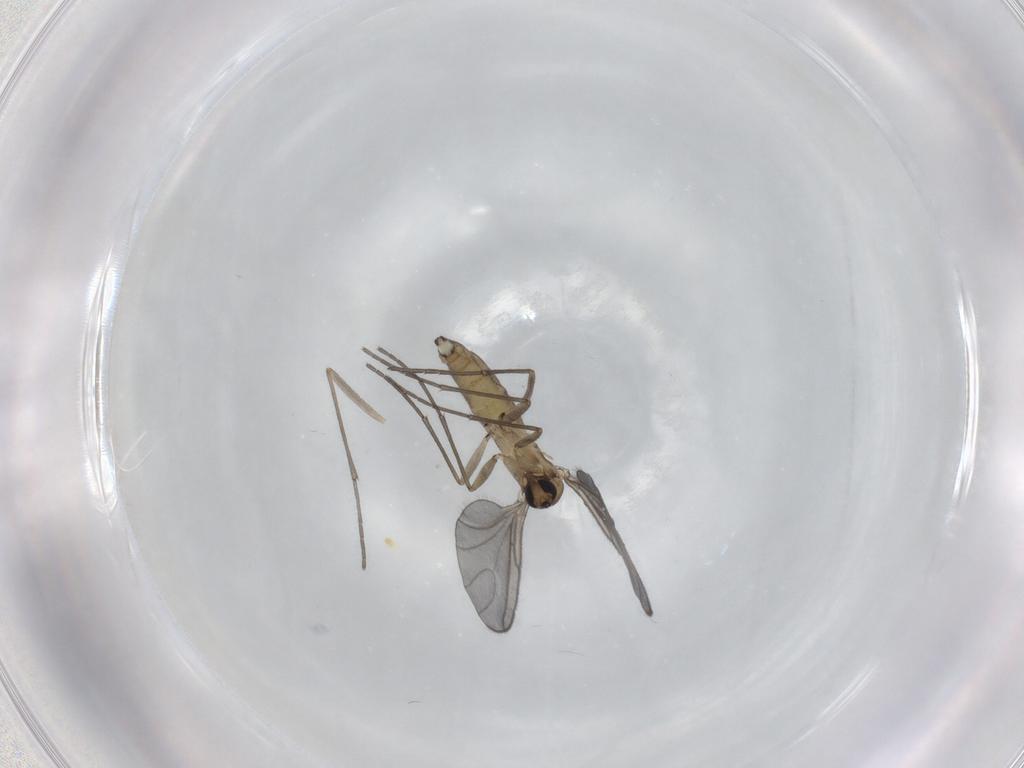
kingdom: Animalia
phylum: Arthropoda
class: Insecta
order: Diptera
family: Sciaridae
